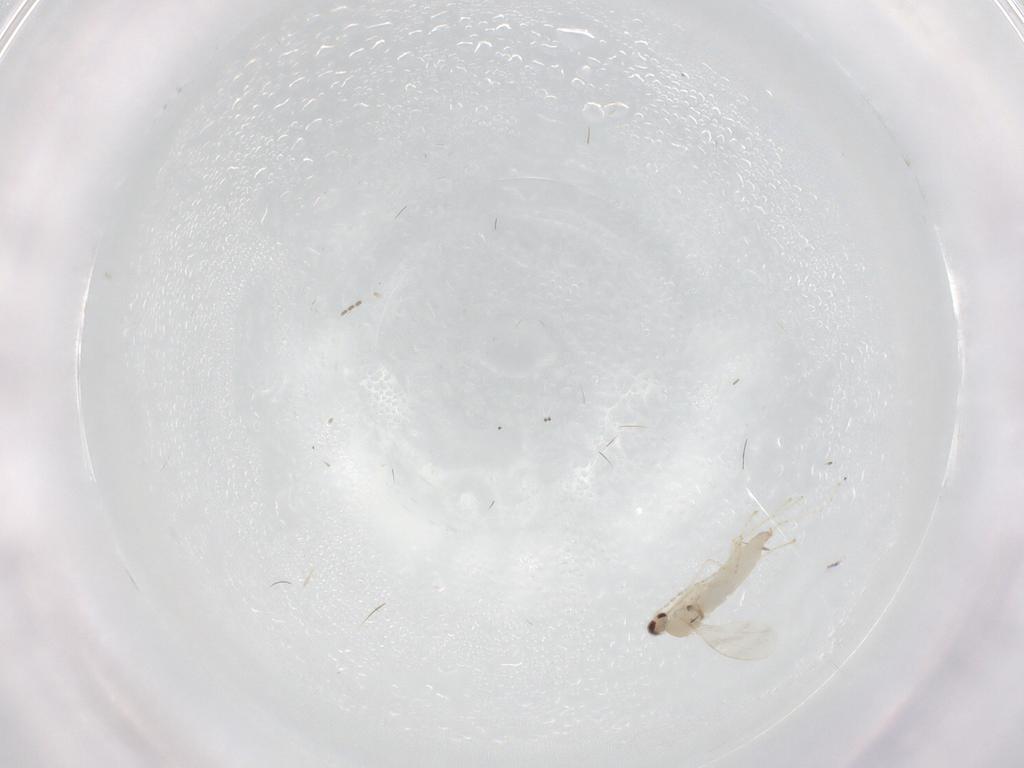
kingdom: Animalia
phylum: Arthropoda
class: Insecta
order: Diptera
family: Cecidomyiidae
